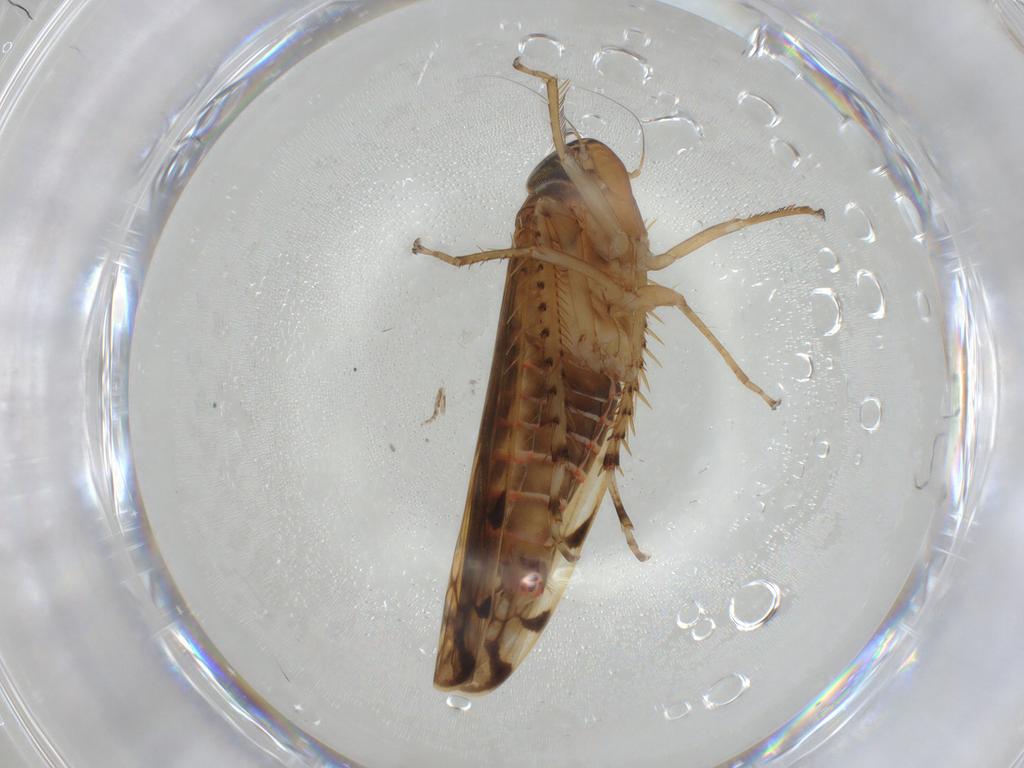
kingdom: Animalia
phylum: Arthropoda
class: Insecta
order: Hemiptera
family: Cicadellidae
